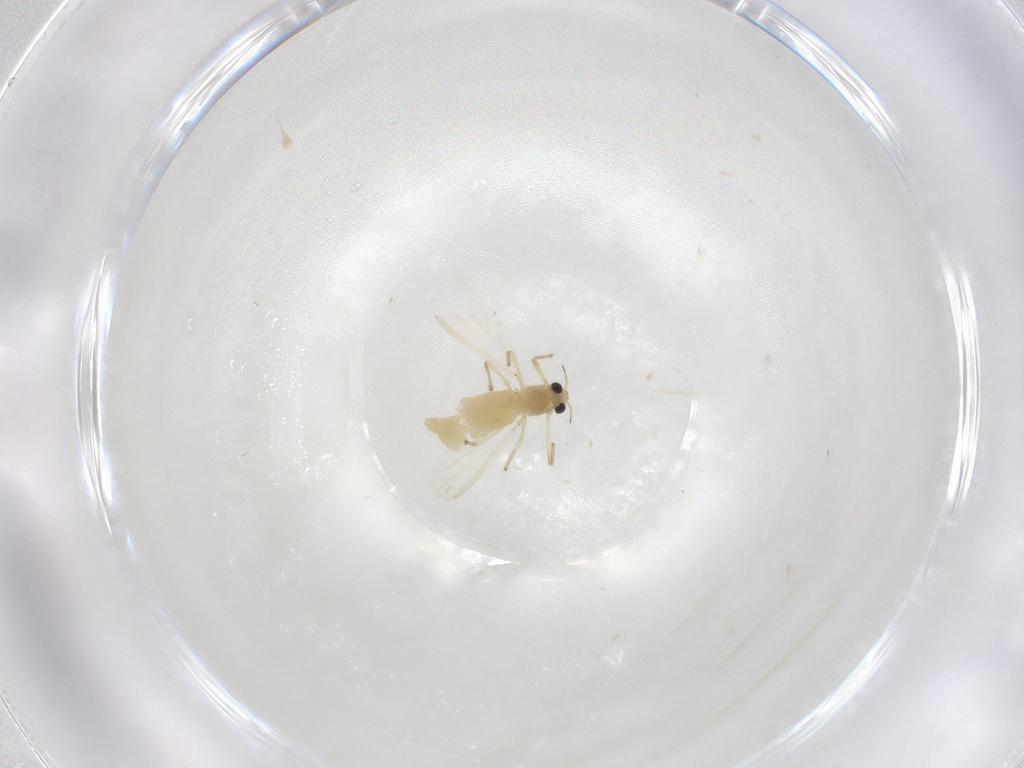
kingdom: Animalia
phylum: Arthropoda
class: Insecta
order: Diptera
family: Chironomidae
